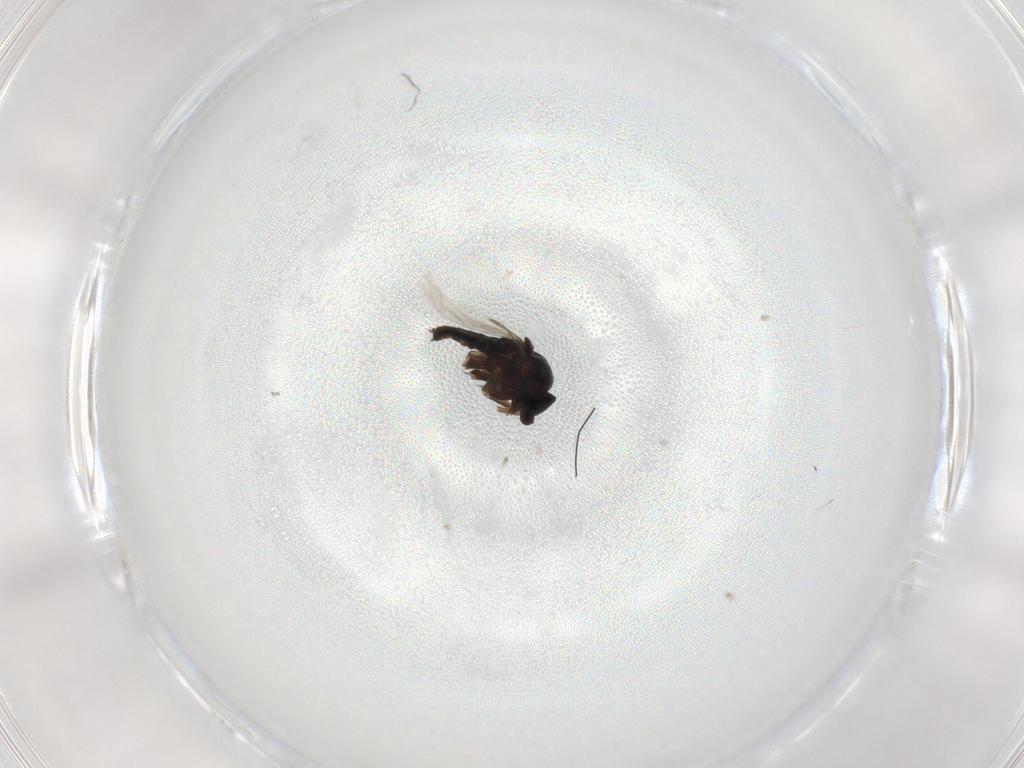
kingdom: Animalia
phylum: Arthropoda
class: Insecta
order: Diptera
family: Phoridae
